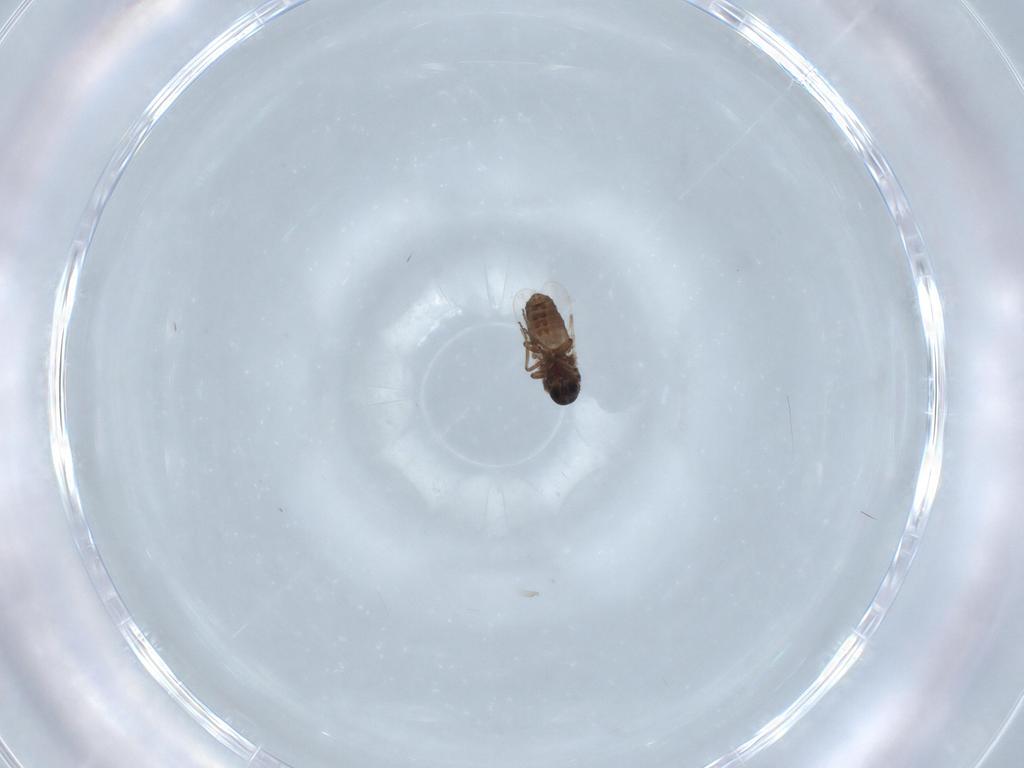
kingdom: Animalia
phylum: Arthropoda
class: Insecta
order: Diptera
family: Ceratopogonidae
